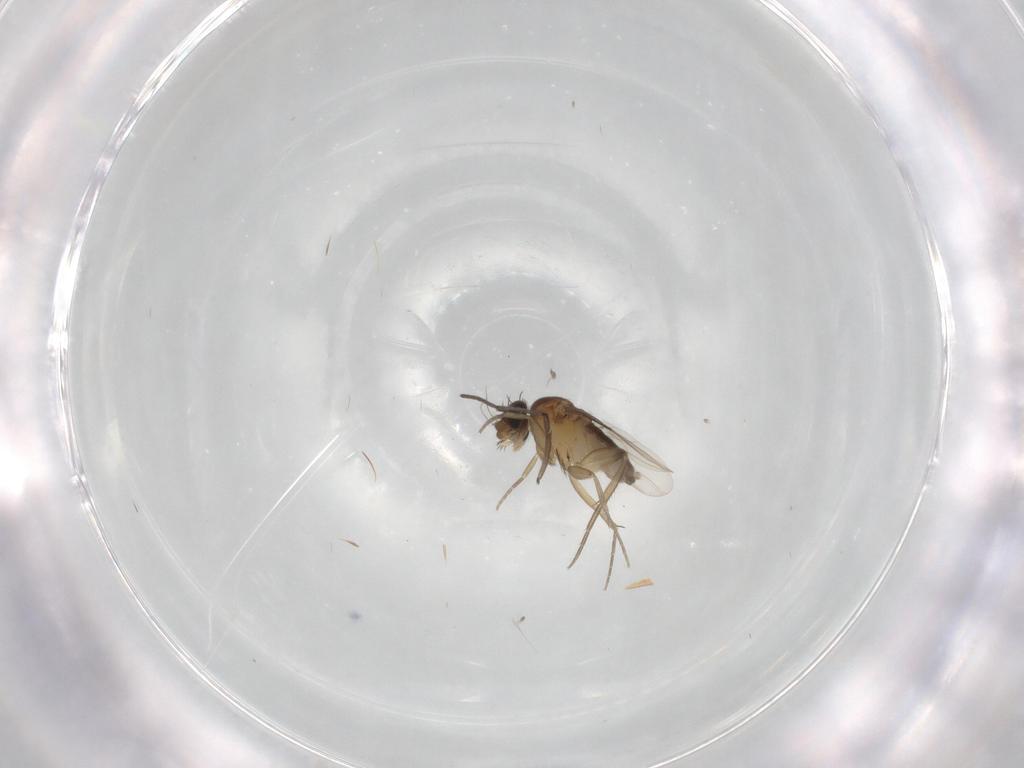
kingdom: Animalia
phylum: Arthropoda
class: Insecta
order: Diptera
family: Phoridae
